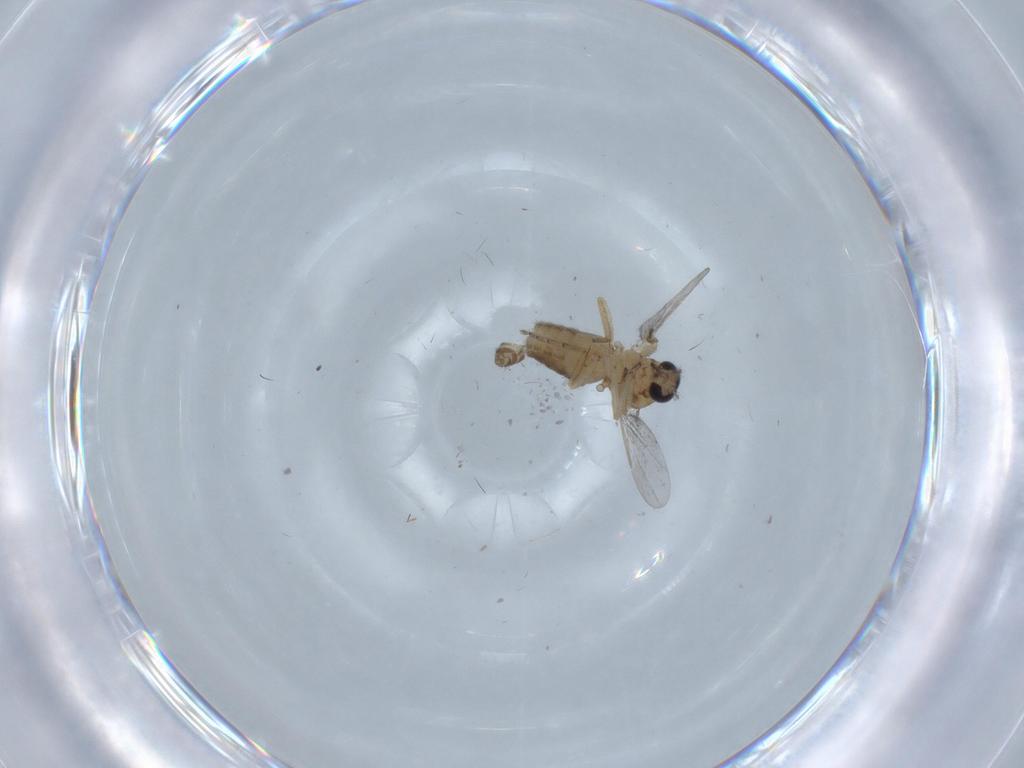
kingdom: Animalia
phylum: Arthropoda
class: Insecta
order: Diptera
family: Ceratopogonidae
